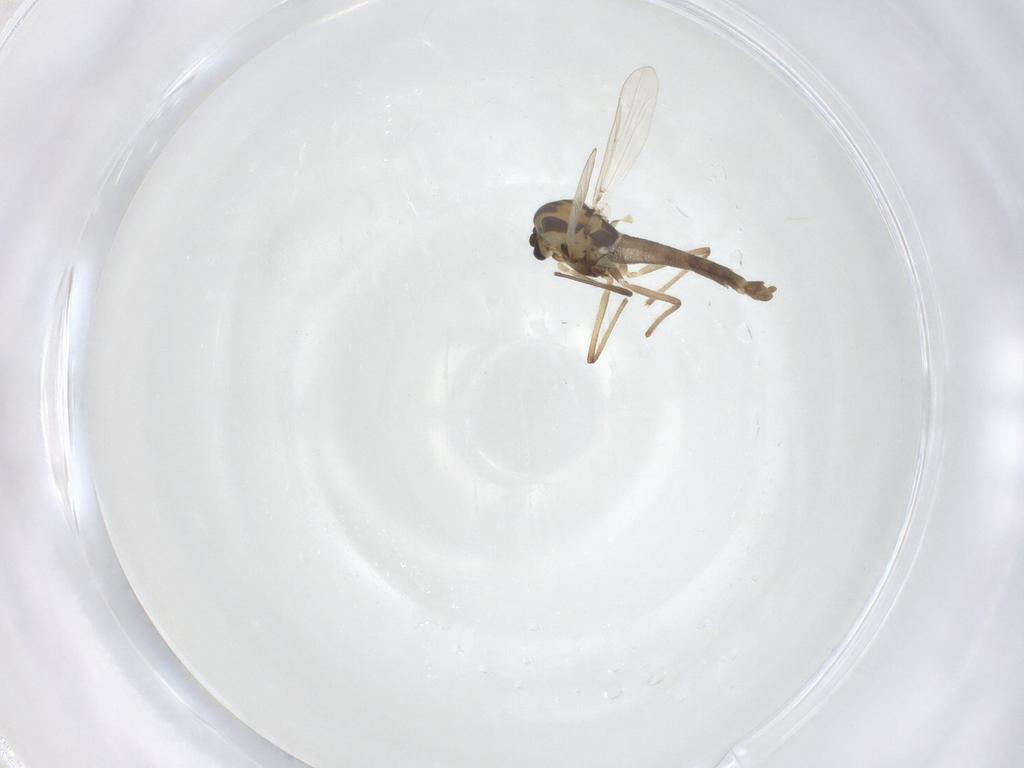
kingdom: Animalia
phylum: Arthropoda
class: Insecta
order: Diptera
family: Chironomidae
